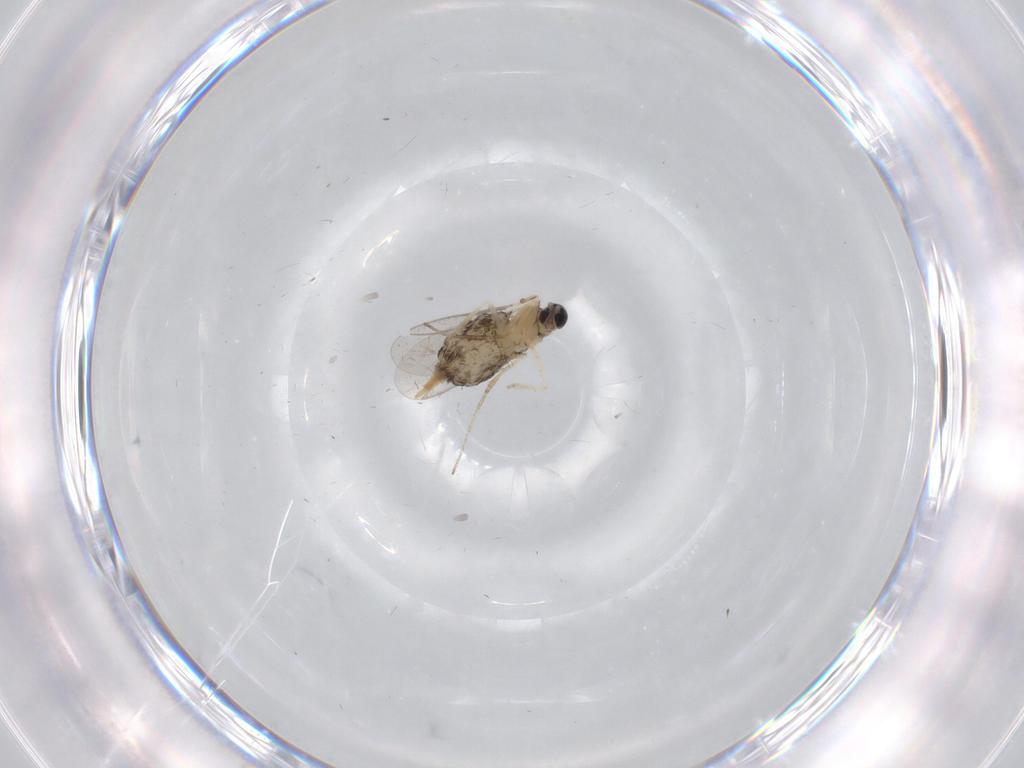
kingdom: Animalia
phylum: Arthropoda
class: Insecta
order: Diptera
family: Cecidomyiidae
